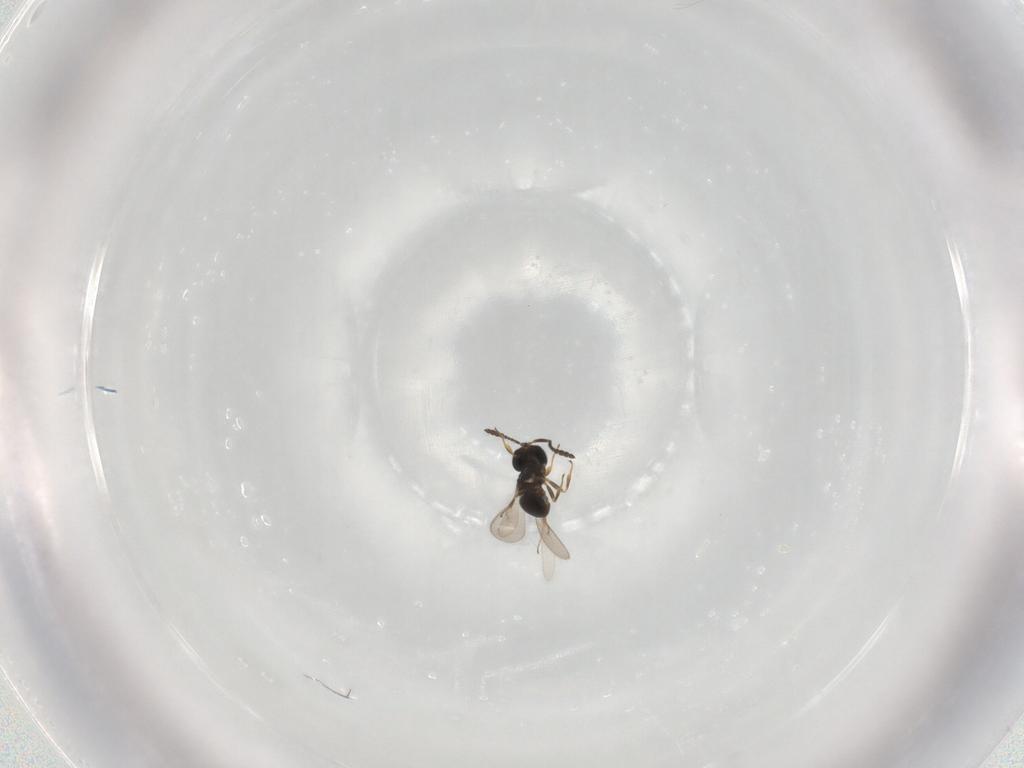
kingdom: Animalia
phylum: Arthropoda
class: Insecta
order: Hymenoptera
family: Scelionidae
